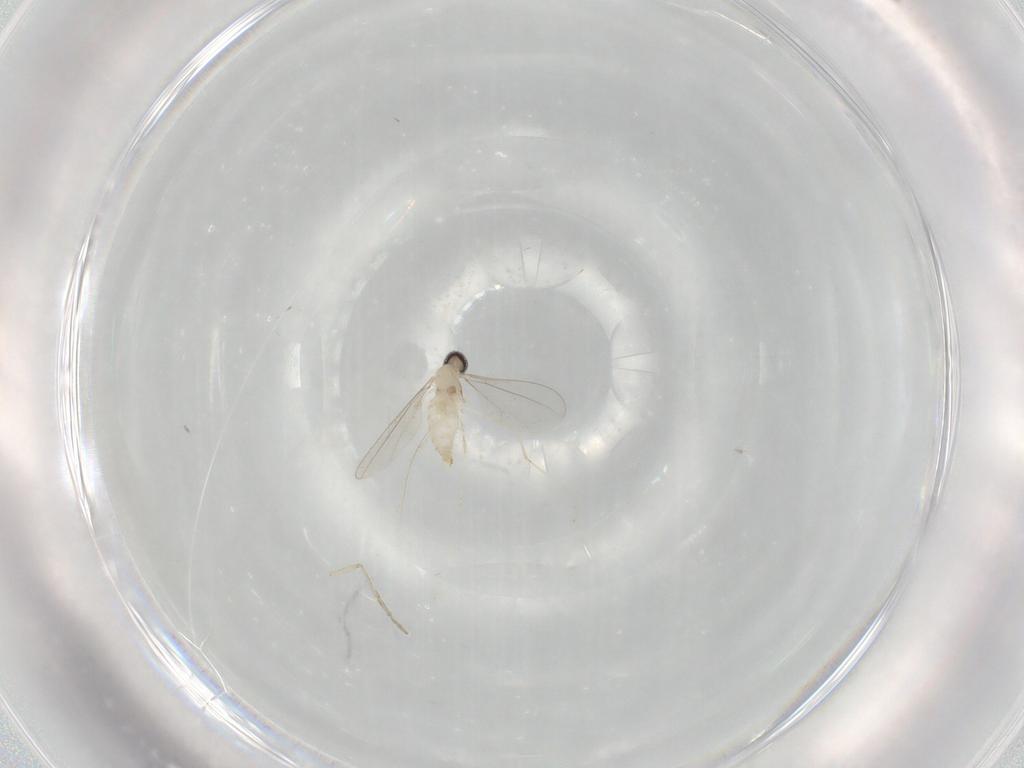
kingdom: Animalia
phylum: Arthropoda
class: Insecta
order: Diptera
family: Cecidomyiidae
